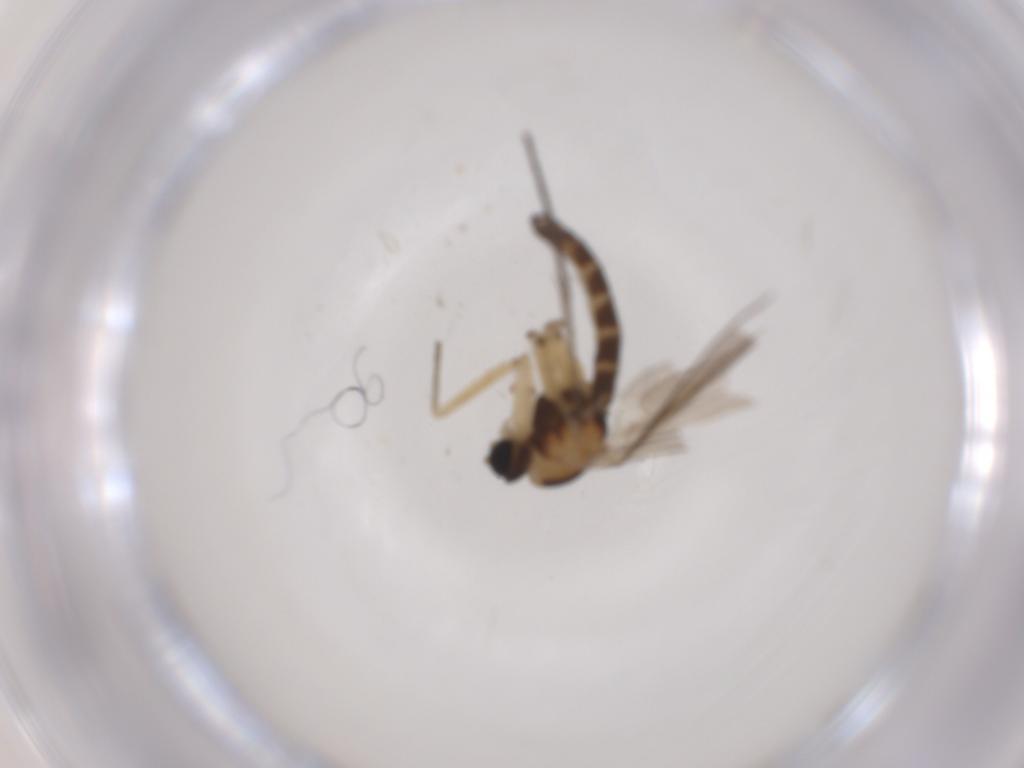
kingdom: Animalia
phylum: Arthropoda
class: Insecta
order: Diptera
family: Sciaridae
